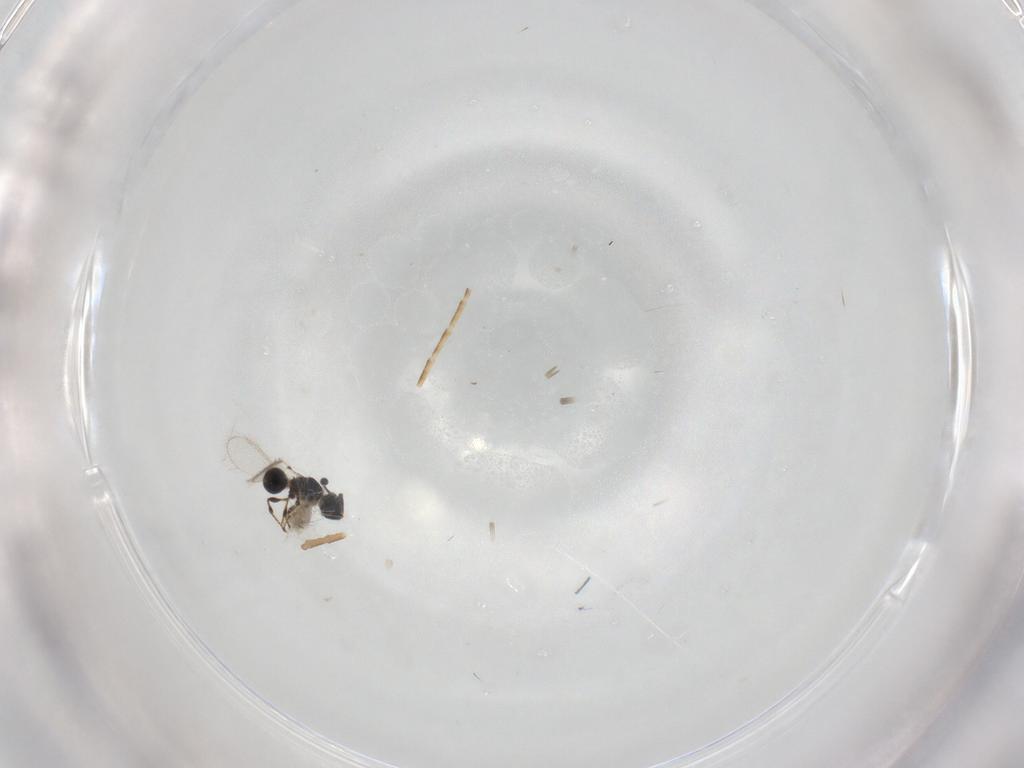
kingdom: Animalia
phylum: Arthropoda
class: Insecta
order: Hymenoptera
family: Diapriidae
